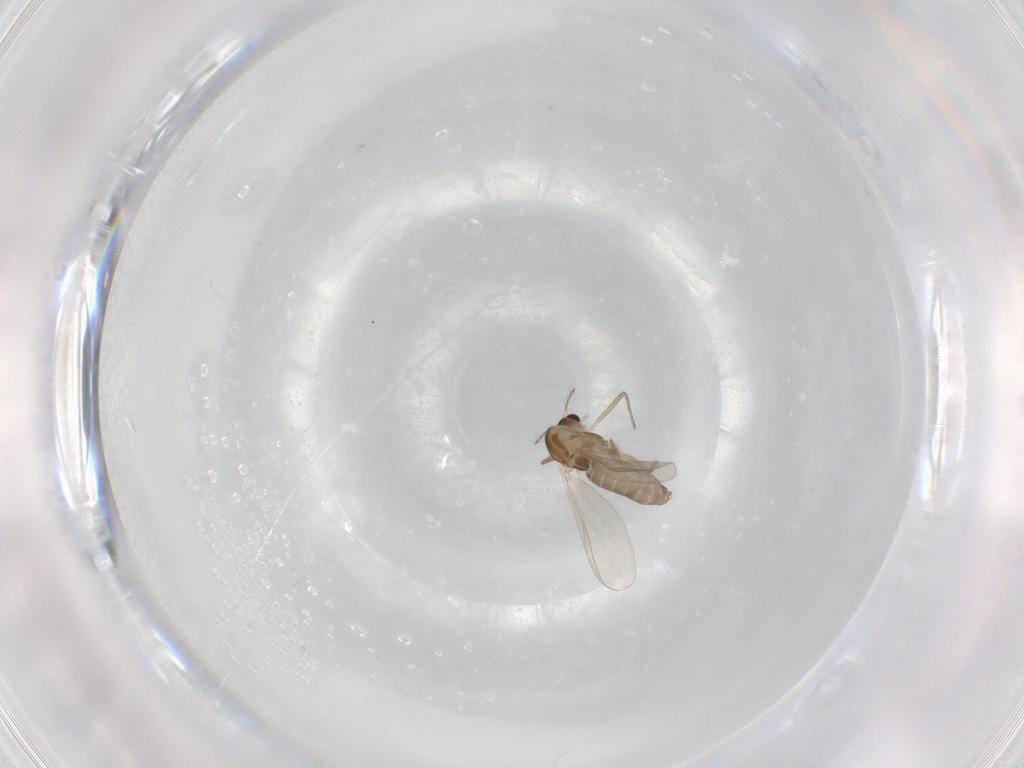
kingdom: Animalia
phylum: Arthropoda
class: Insecta
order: Diptera
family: Chironomidae
